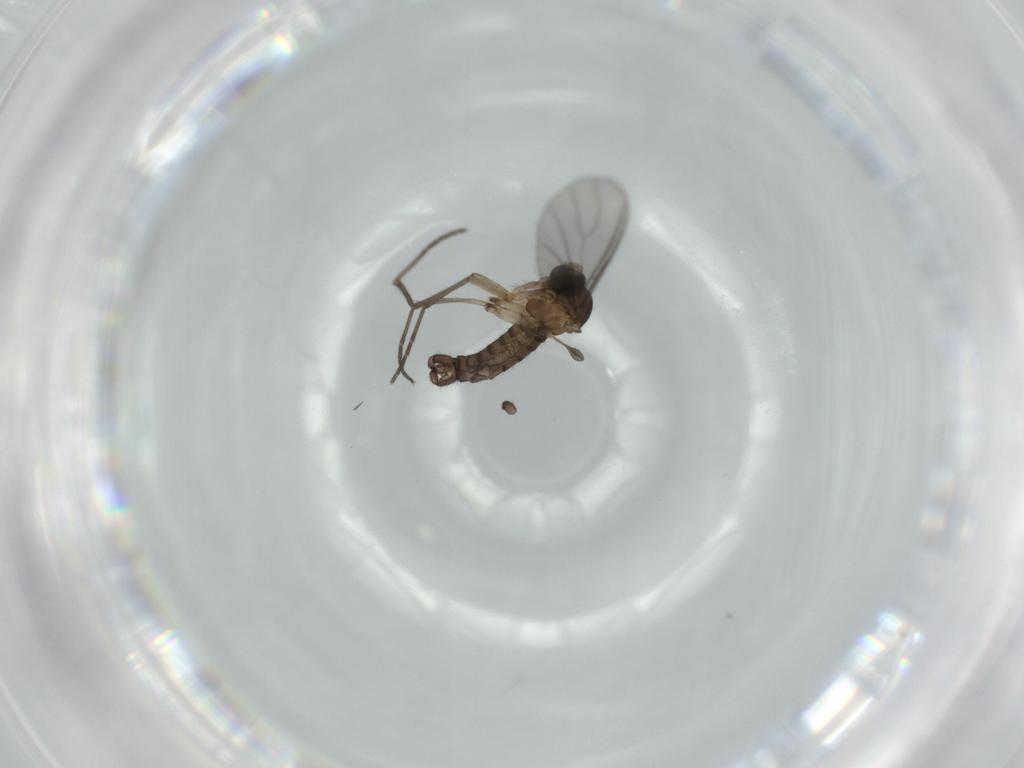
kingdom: Animalia
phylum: Arthropoda
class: Insecta
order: Diptera
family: Sciaridae
